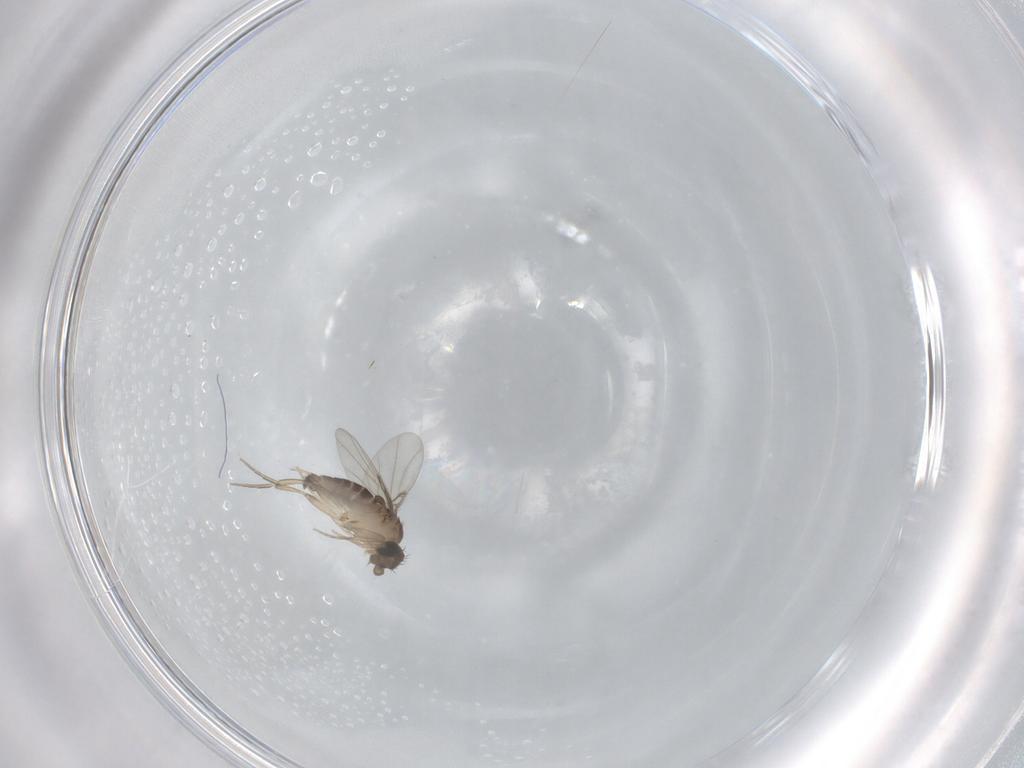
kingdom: Animalia
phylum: Arthropoda
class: Insecta
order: Diptera
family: Phoridae
